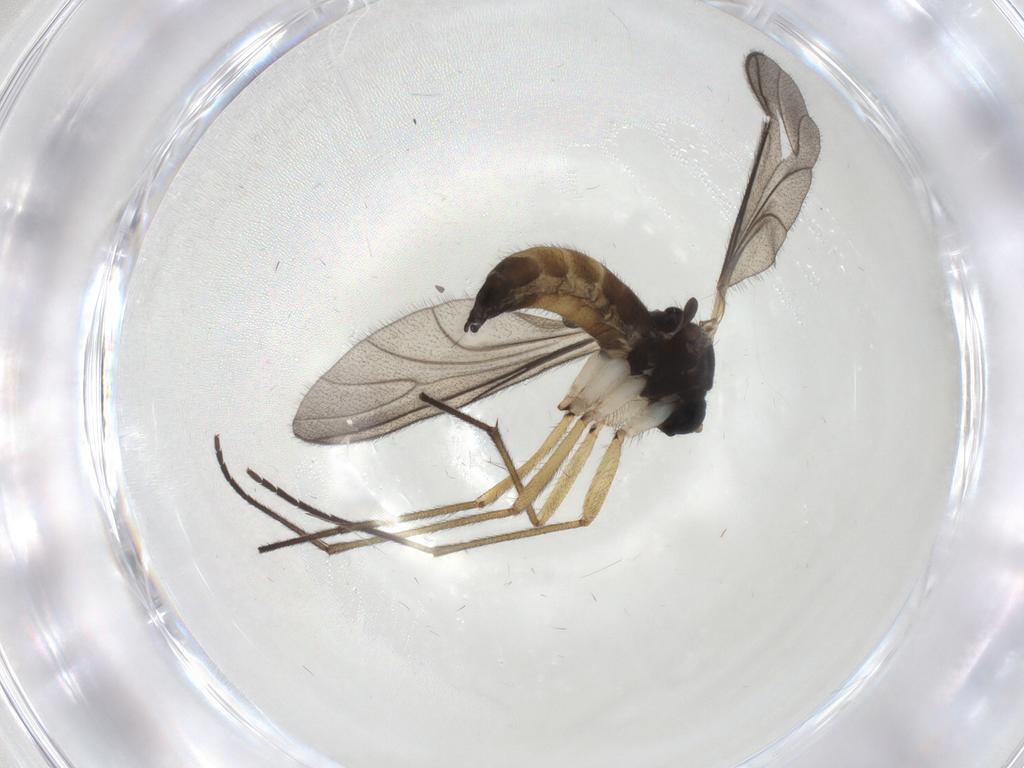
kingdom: Animalia
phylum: Arthropoda
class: Insecta
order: Diptera
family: Sciaridae
